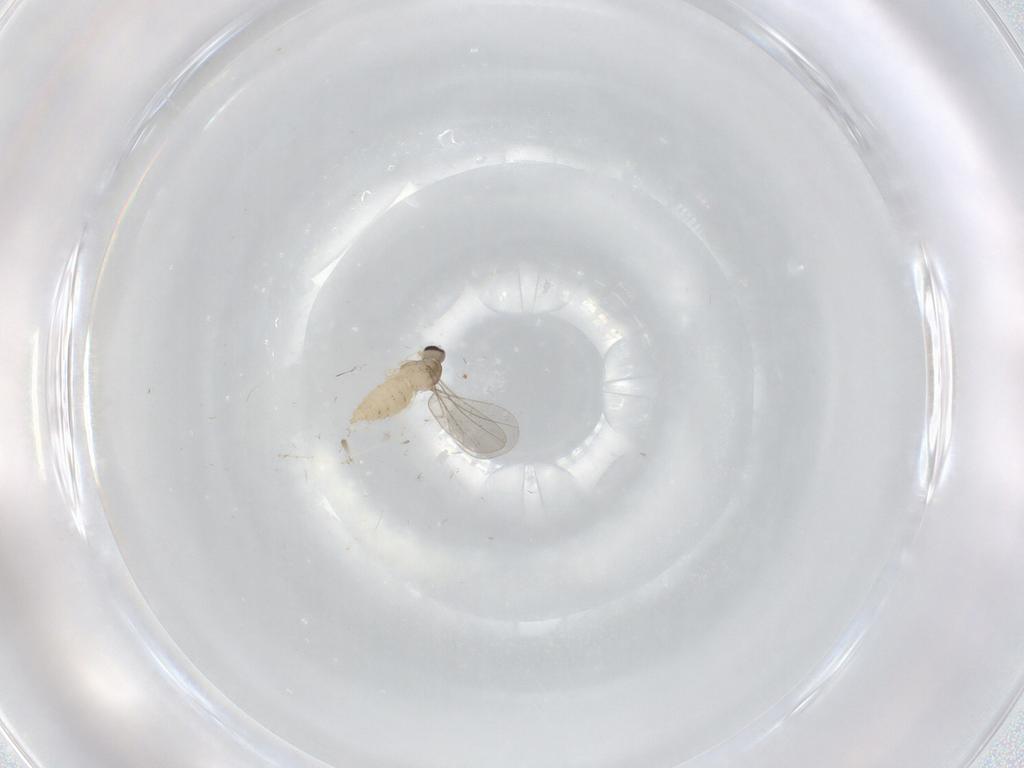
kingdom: Animalia
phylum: Arthropoda
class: Insecta
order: Diptera
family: Cecidomyiidae
